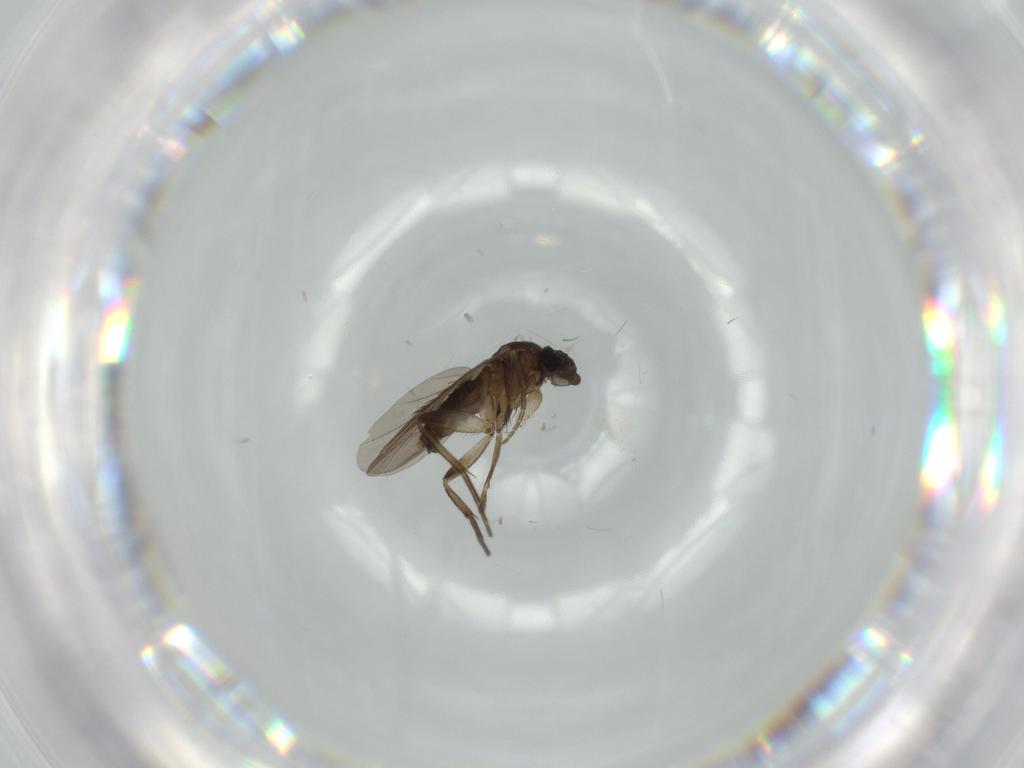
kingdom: Animalia
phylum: Arthropoda
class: Insecta
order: Diptera
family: Phoridae
